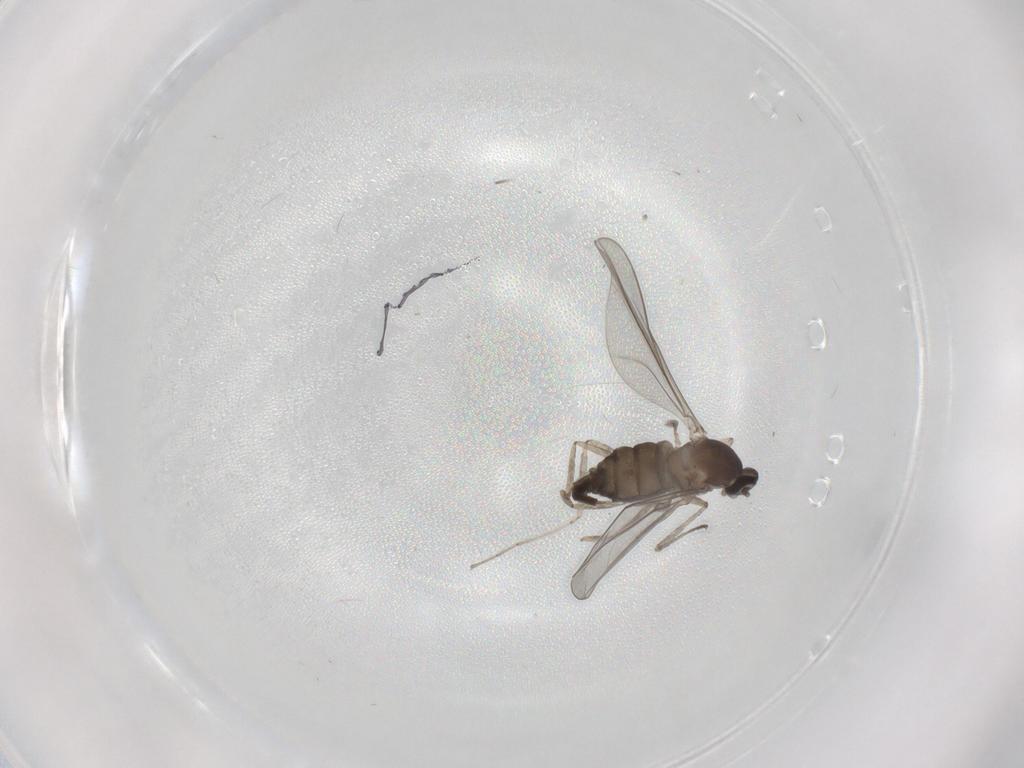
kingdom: Animalia
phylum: Arthropoda
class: Insecta
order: Diptera
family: Cecidomyiidae
